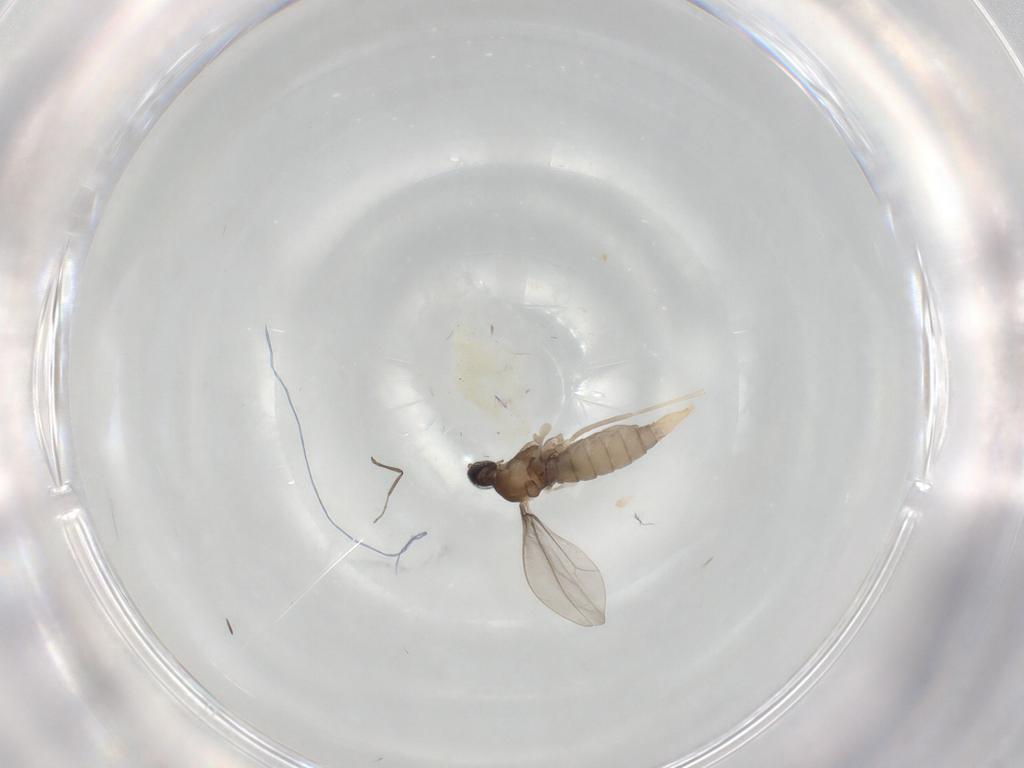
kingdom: Animalia
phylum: Arthropoda
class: Insecta
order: Diptera
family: Cecidomyiidae
